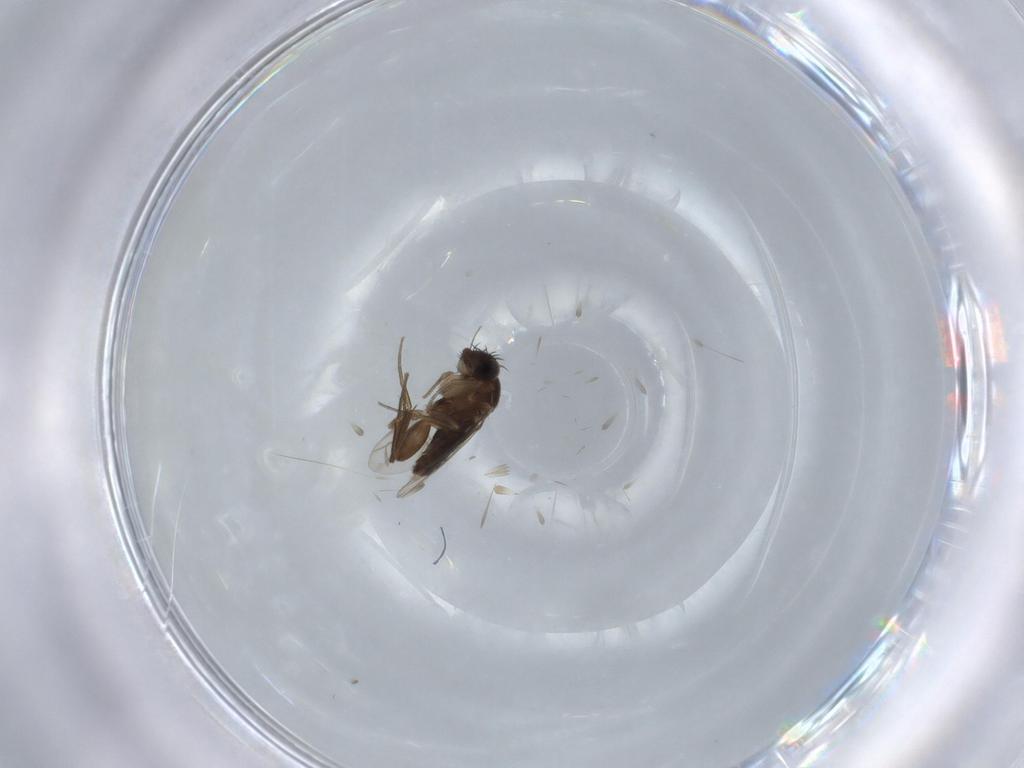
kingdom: Animalia
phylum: Arthropoda
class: Insecta
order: Diptera
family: Phoridae
